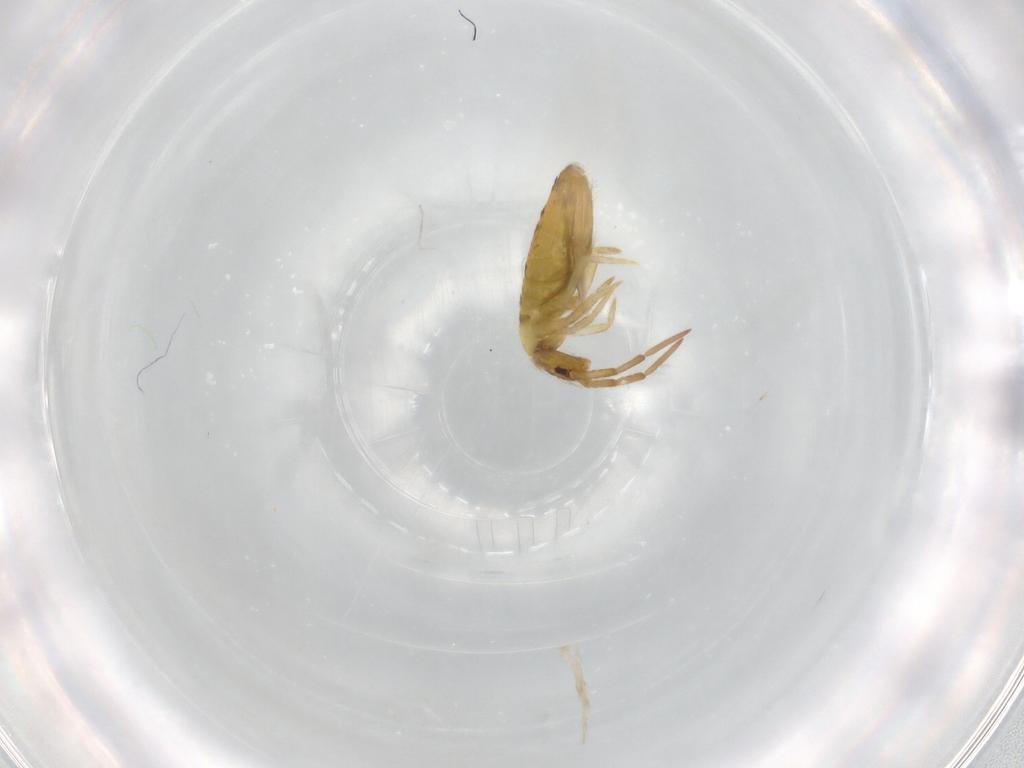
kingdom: Animalia
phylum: Arthropoda
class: Collembola
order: Entomobryomorpha
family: Entomobryidae
